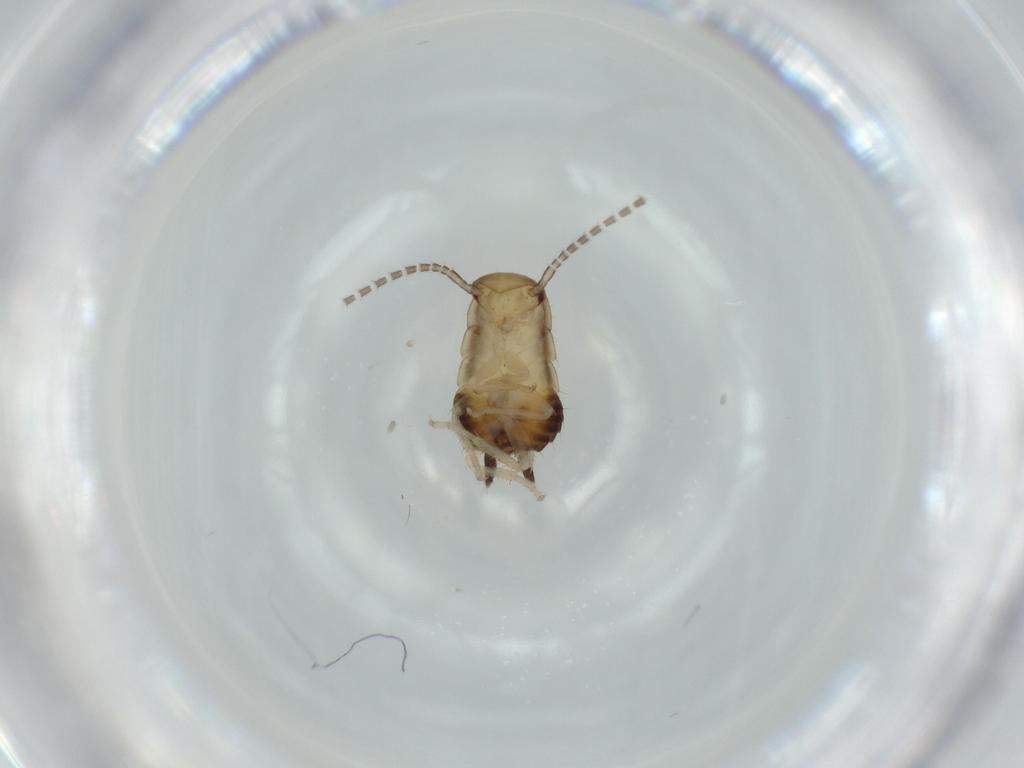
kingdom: Animalia
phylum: Arthropoda
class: Insecta
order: Blattodea
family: Ectobiidae
